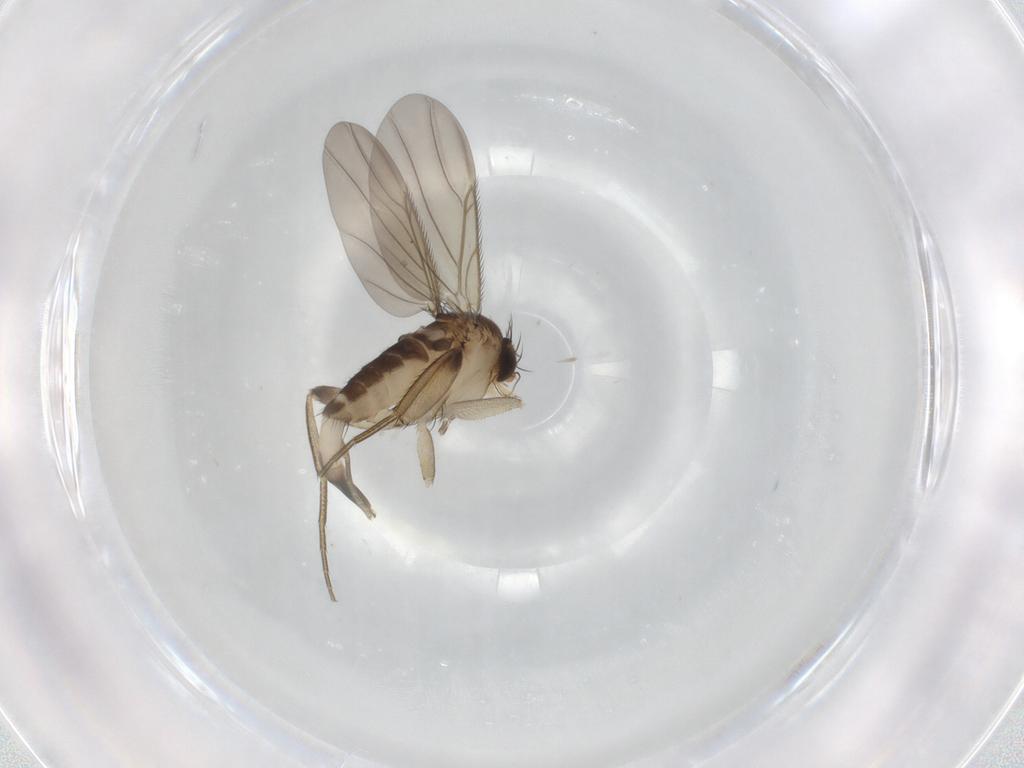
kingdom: Animalia
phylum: Arthropoda
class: Insecta
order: Diptera
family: Phoridae
